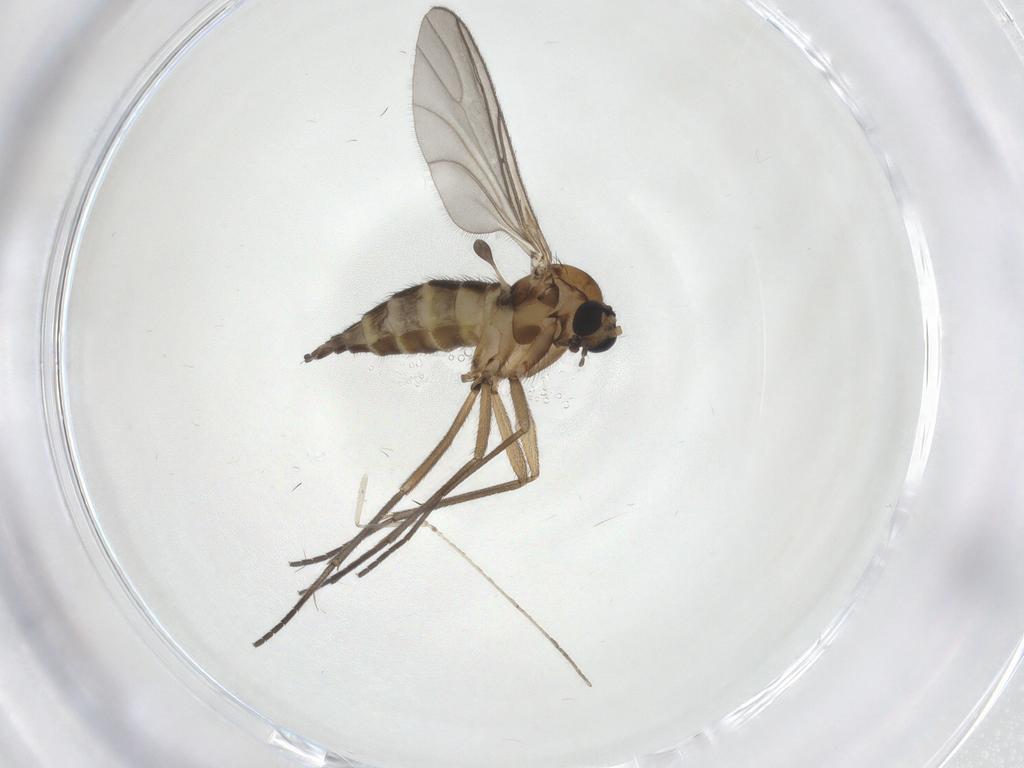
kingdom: Animalia
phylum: Arthropoda
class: Insecta
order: Diptera
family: Sciaridae
